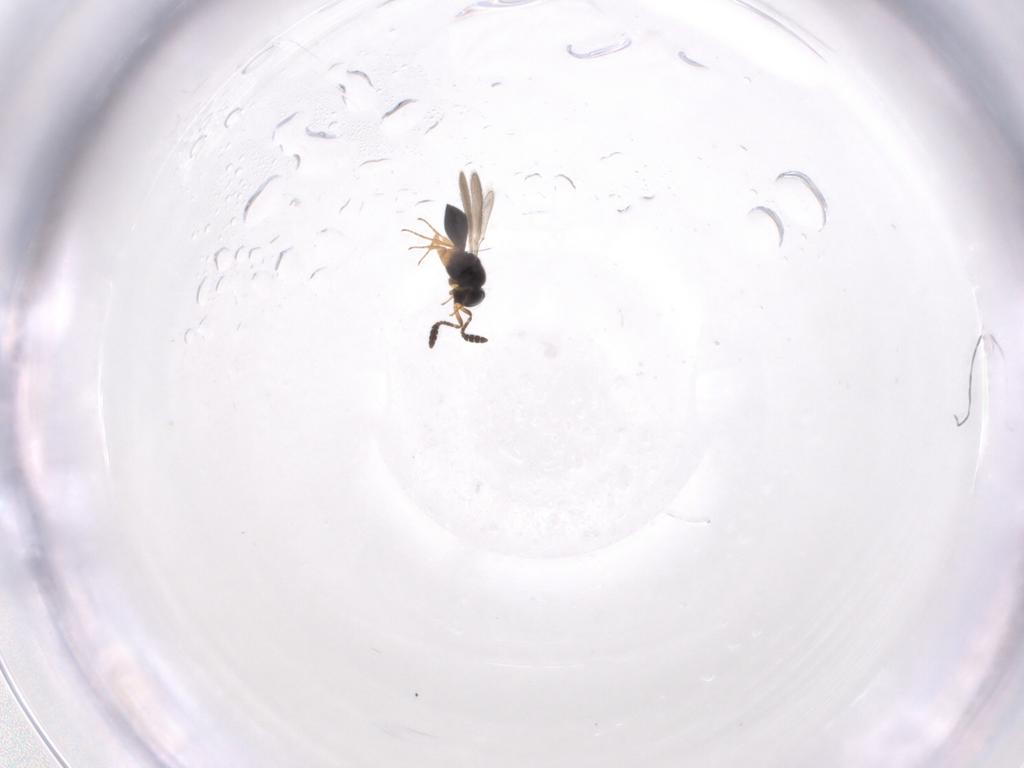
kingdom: Animalia
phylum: Arthropoda
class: Insecta
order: Hymenoptera
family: Scelionidae
